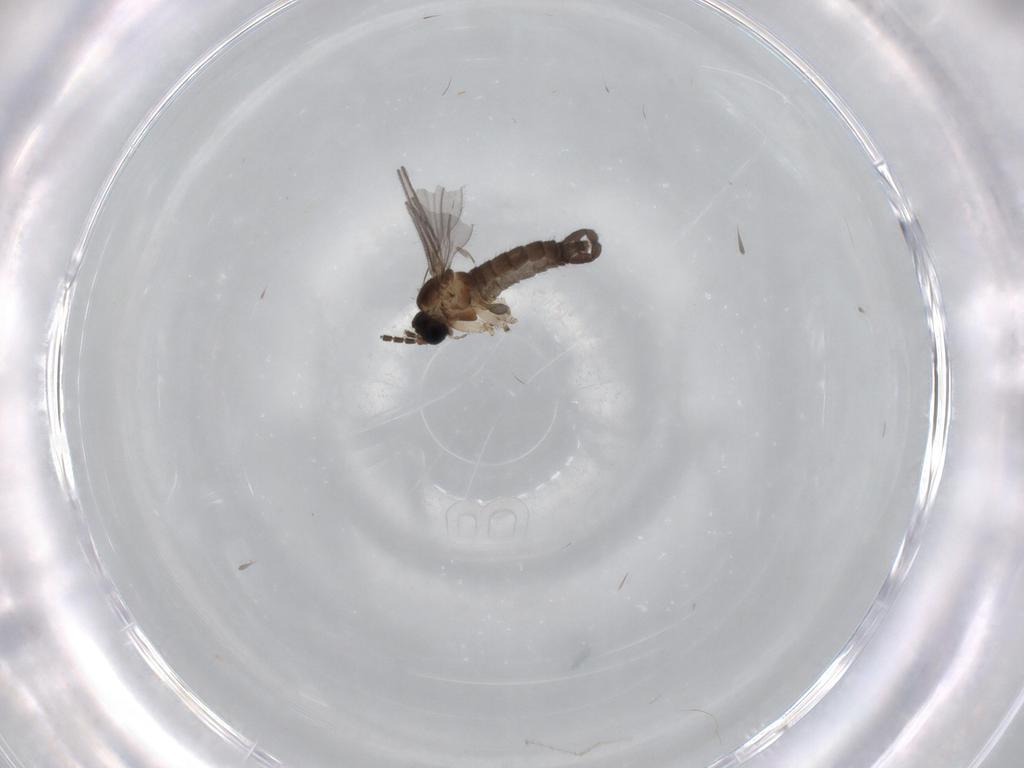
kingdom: Animalia
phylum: Arthropoda
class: Insecta
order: Diptera
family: Sciaridae
